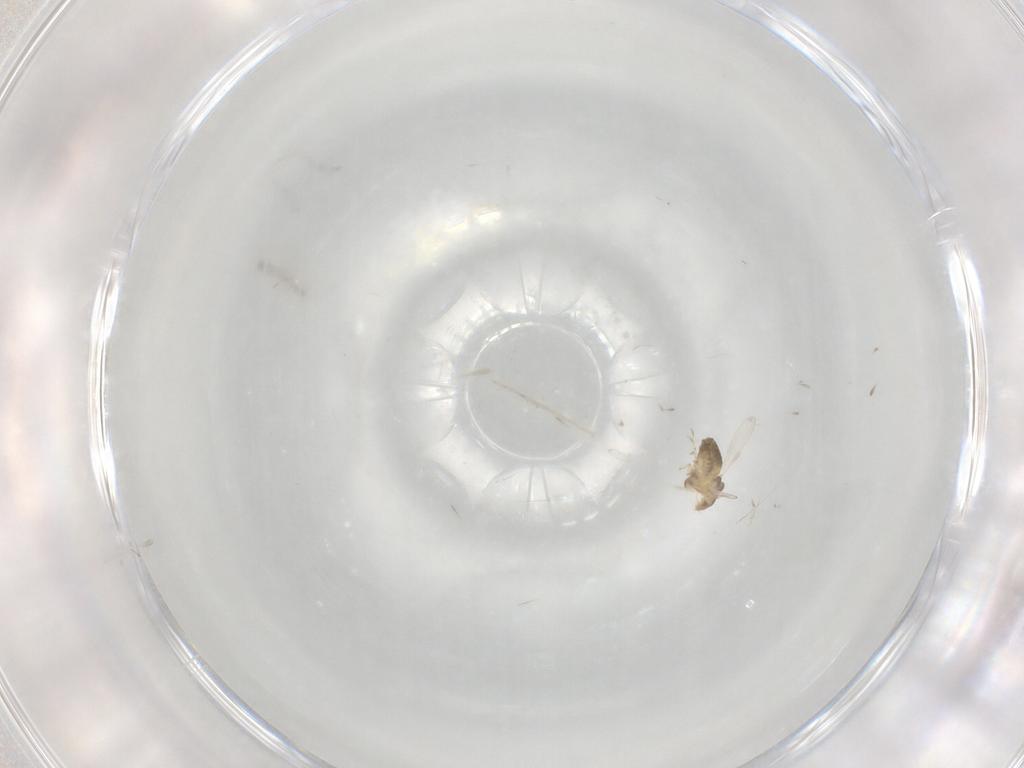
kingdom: Animalia
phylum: Arthropoda
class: Insecta
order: Diptera
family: Chironomidae
